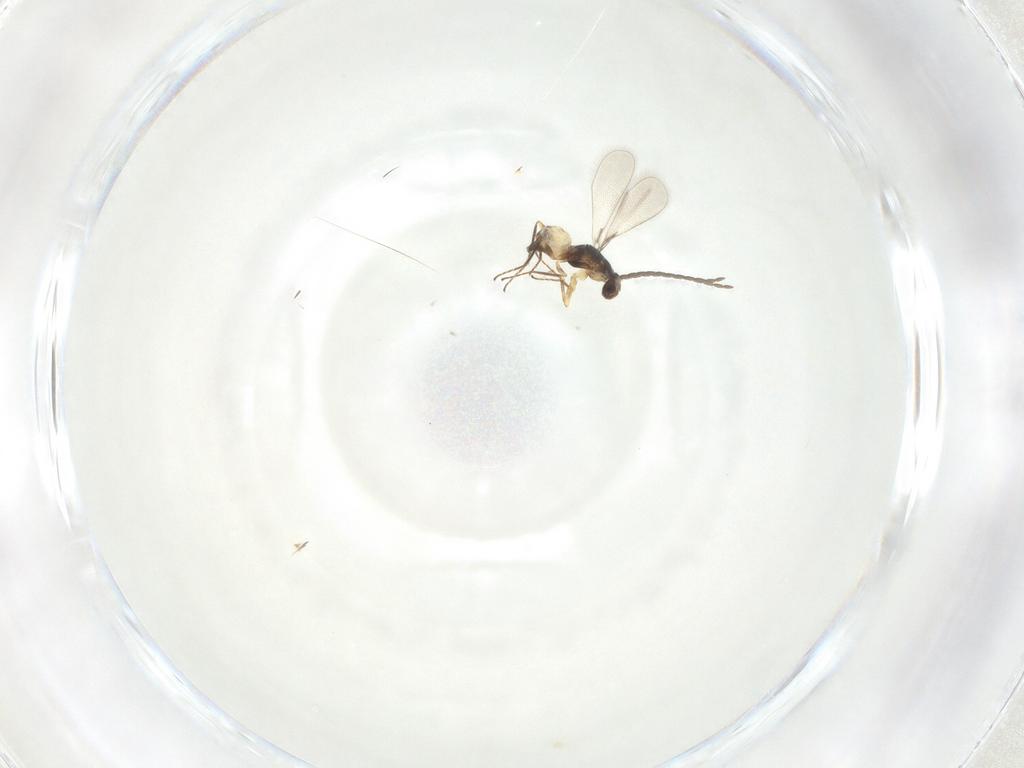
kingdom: Animalia
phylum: Arthropoda
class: Insecta
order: Hymenoptera
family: Mymaridae
